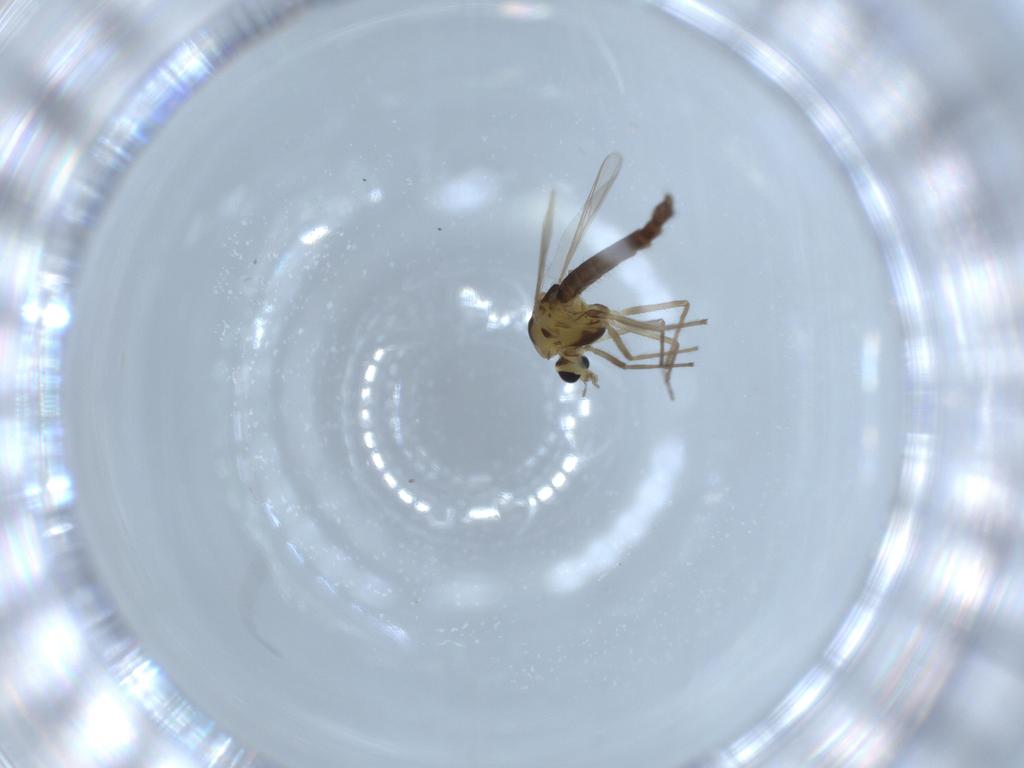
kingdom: Animalia
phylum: Arthropoda
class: Insecta
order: Diptera
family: Chironomidae
